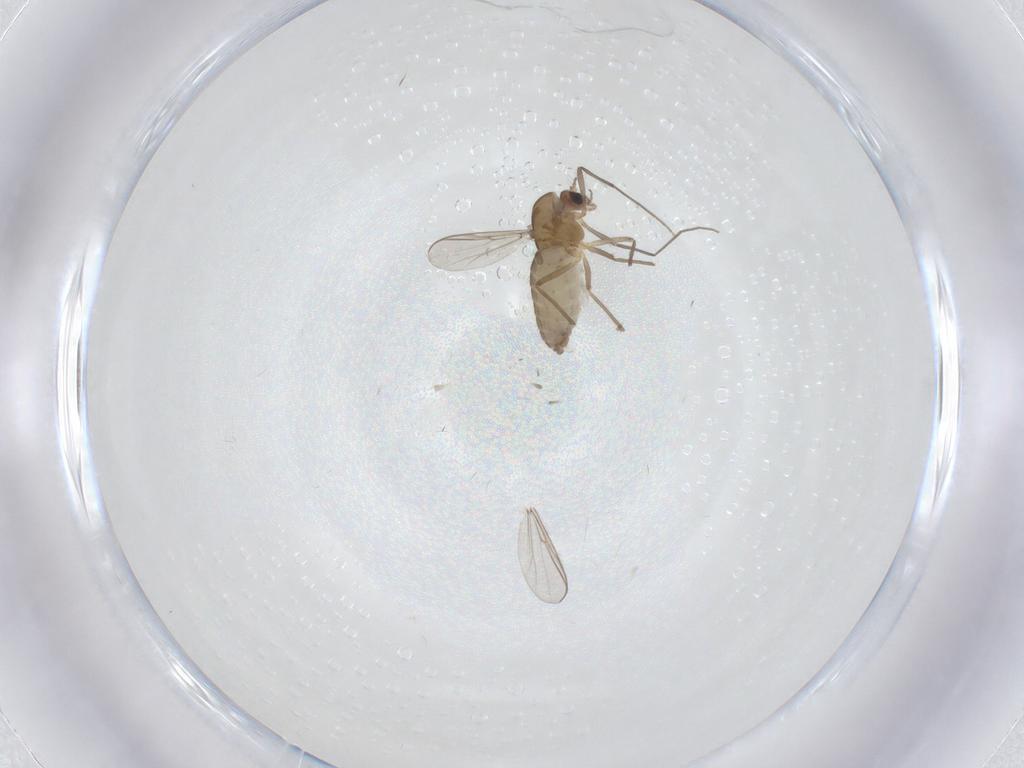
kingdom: Animalia
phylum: Arthropoda
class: Insecta
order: Diptera
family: Chironomidae
